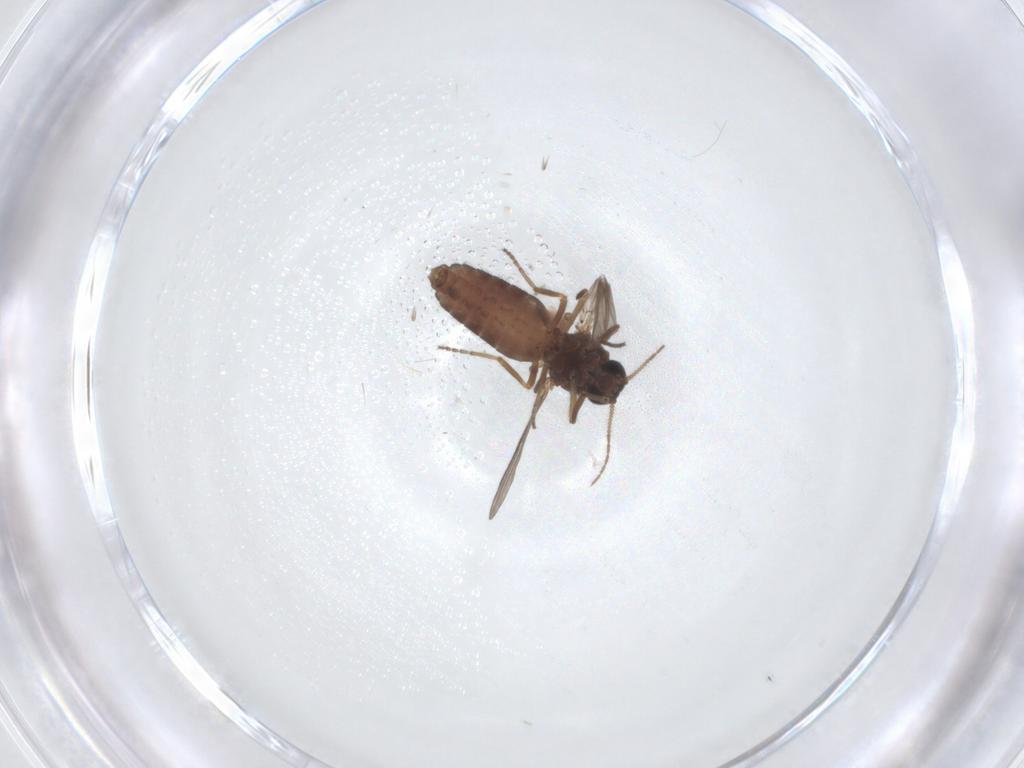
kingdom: Animalia
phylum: Arthropoda
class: Insecta
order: Diptera
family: Ceratopogonidae
